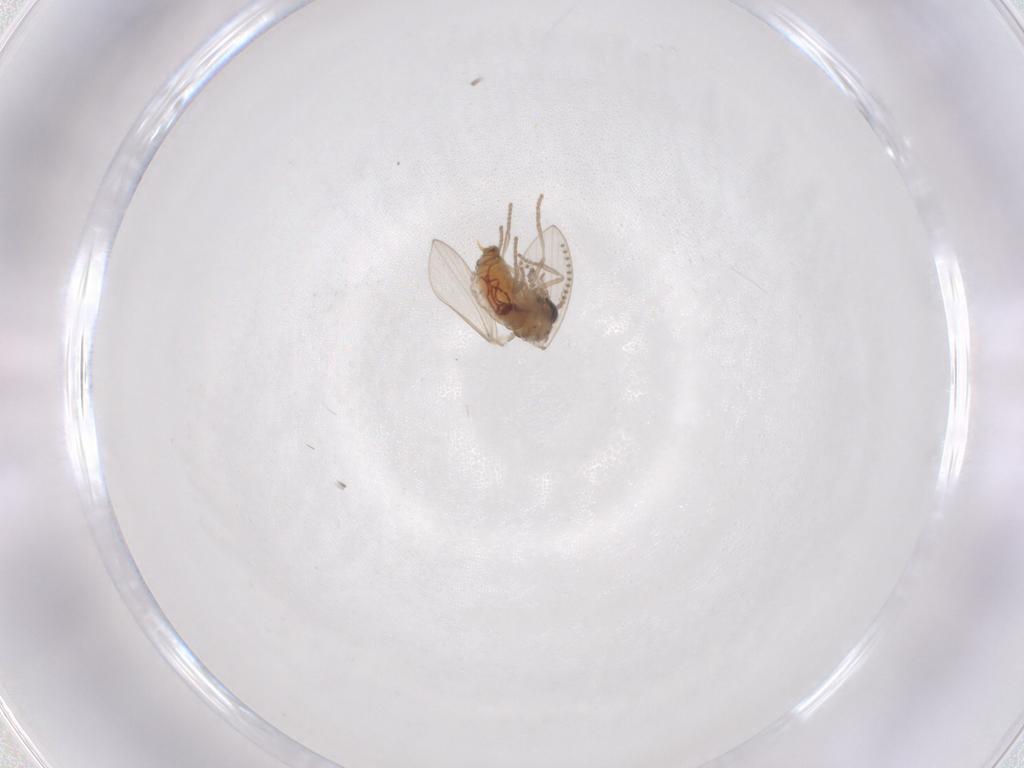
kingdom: Animalia
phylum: Arthropoda
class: Insecta
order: Diptera
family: Psychodidae
